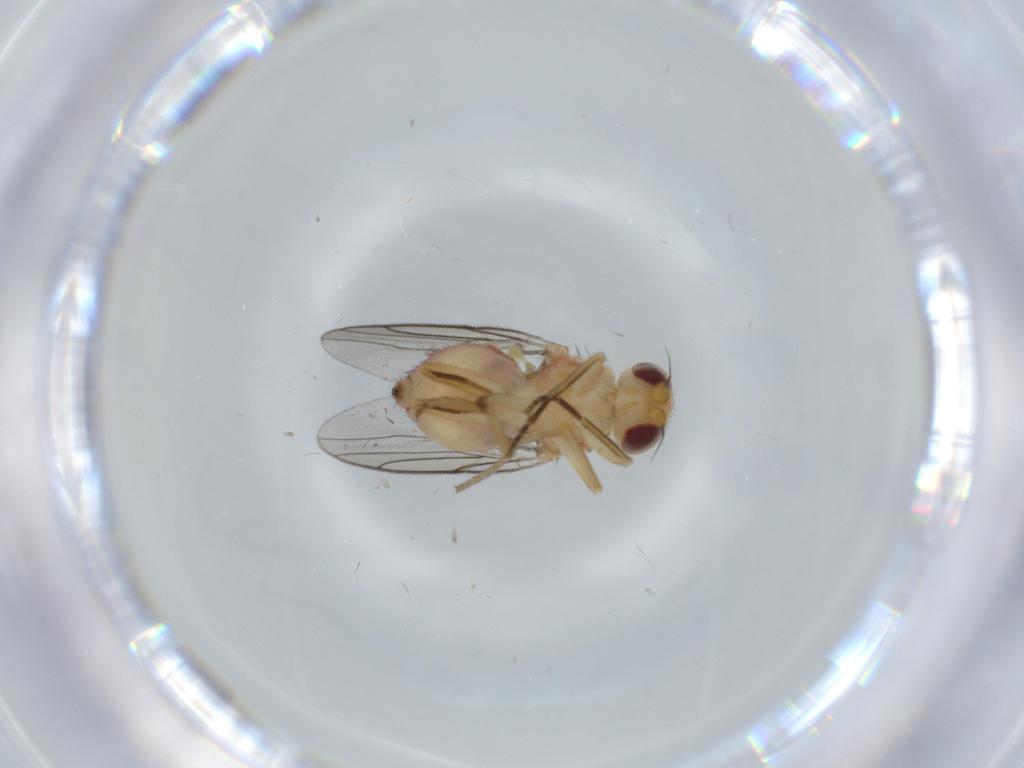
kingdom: Animalia
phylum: Arthropoda
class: Insecta
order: Diptera
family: Chloropidae
